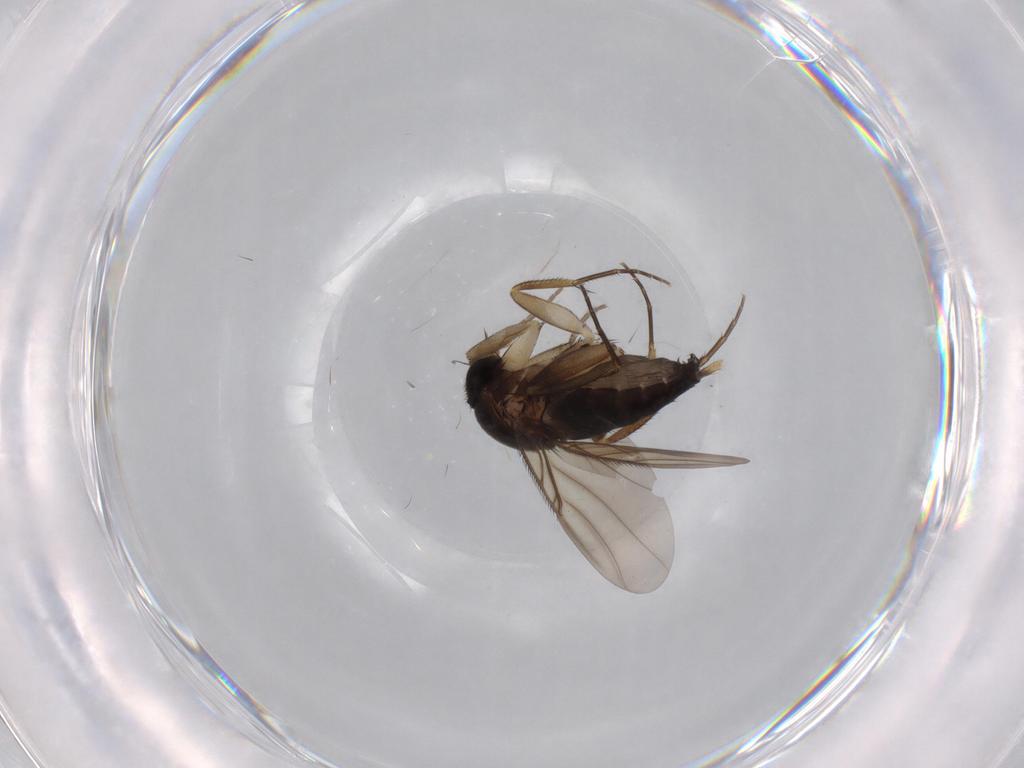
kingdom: Animalia
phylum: Arthropoda
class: Insecta
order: Diptera
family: Phoridae
